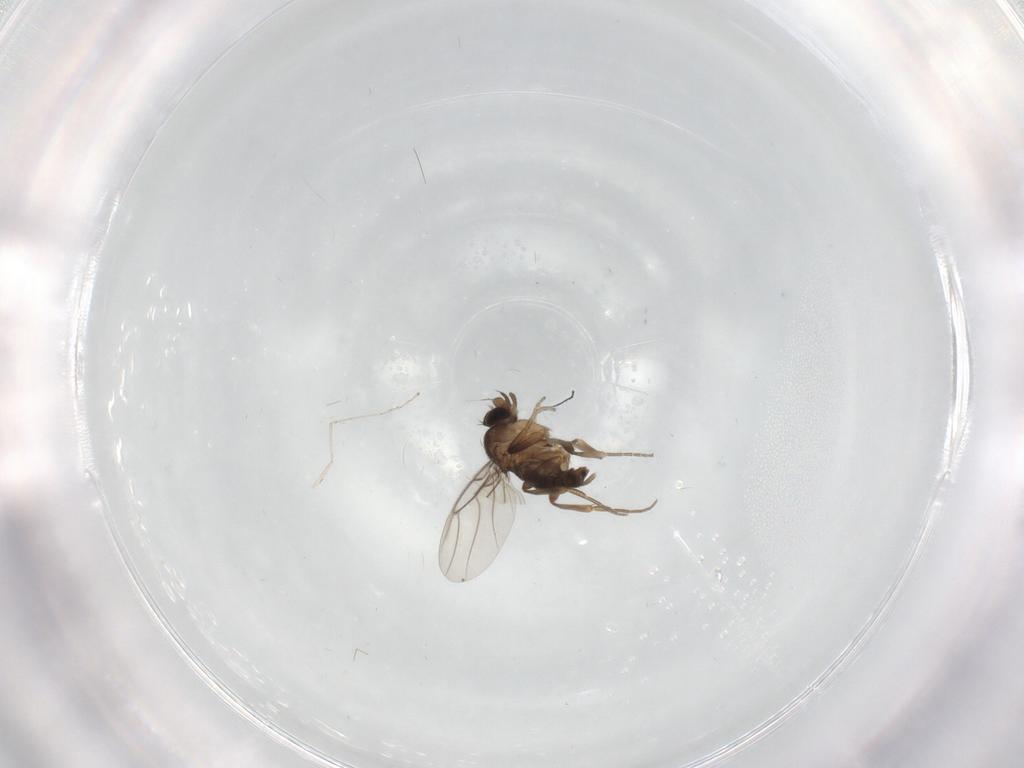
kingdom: Animalia
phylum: Arthropoda
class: Insecta
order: Diptera
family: Phoridae
